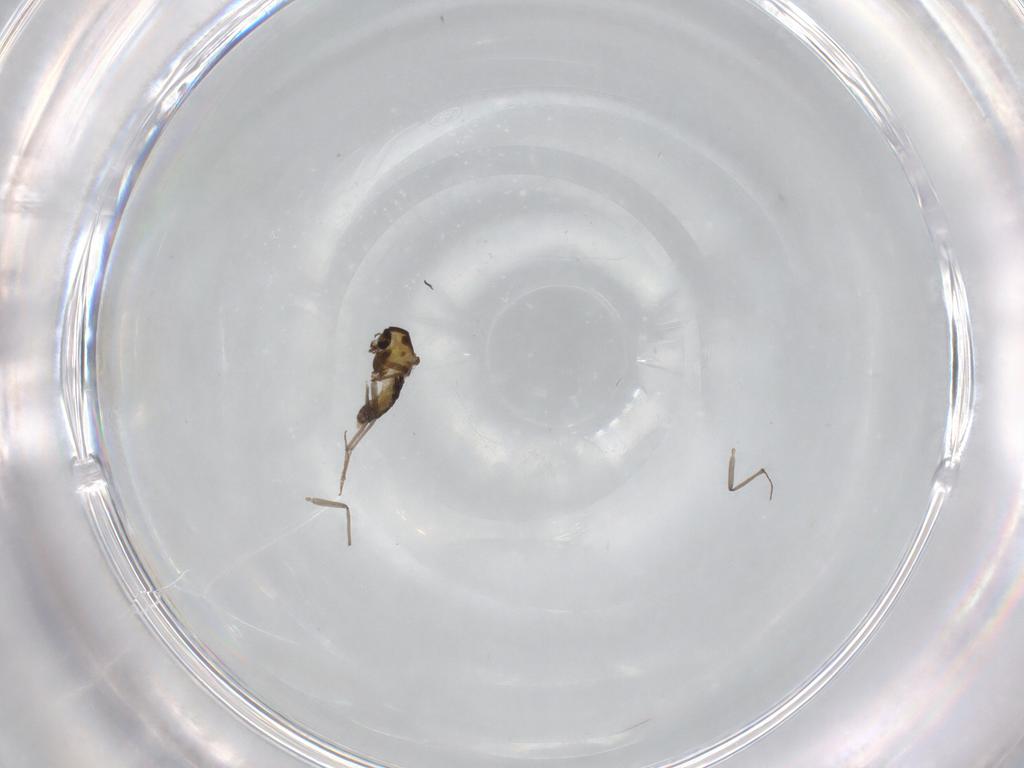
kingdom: Animalia
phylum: Arthropoda
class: Insecta
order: Diptera
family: Chironomidae
